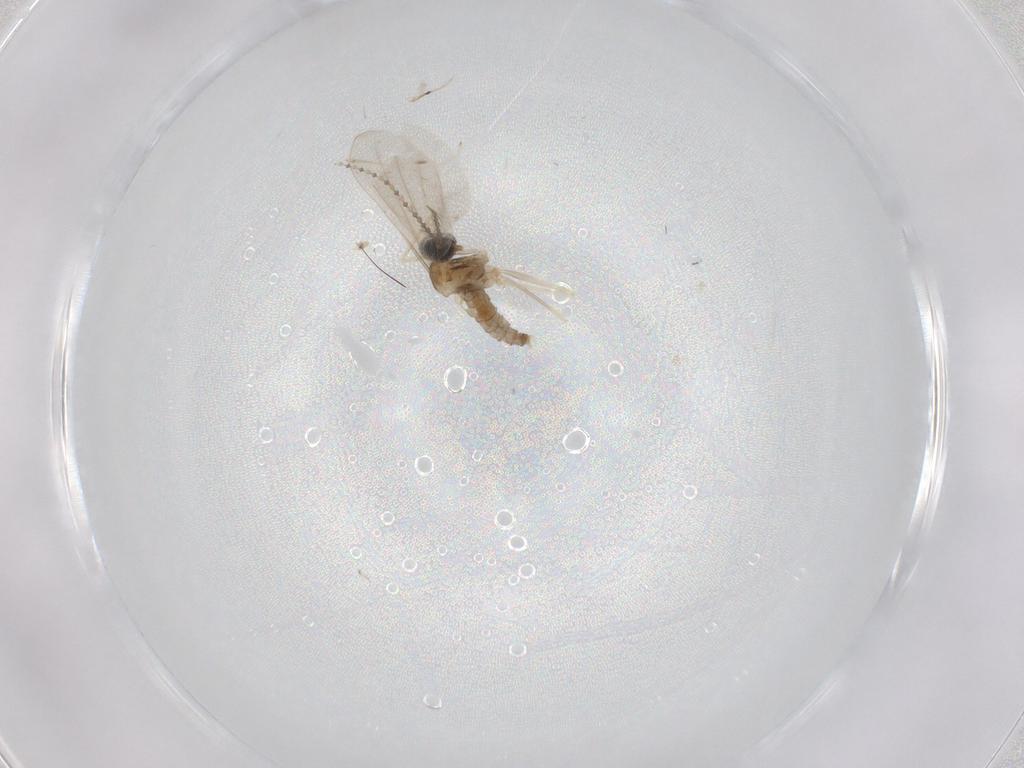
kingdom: Animalia
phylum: Arthropoda
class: Insecta
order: Diptera
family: Cecidomyiidae
